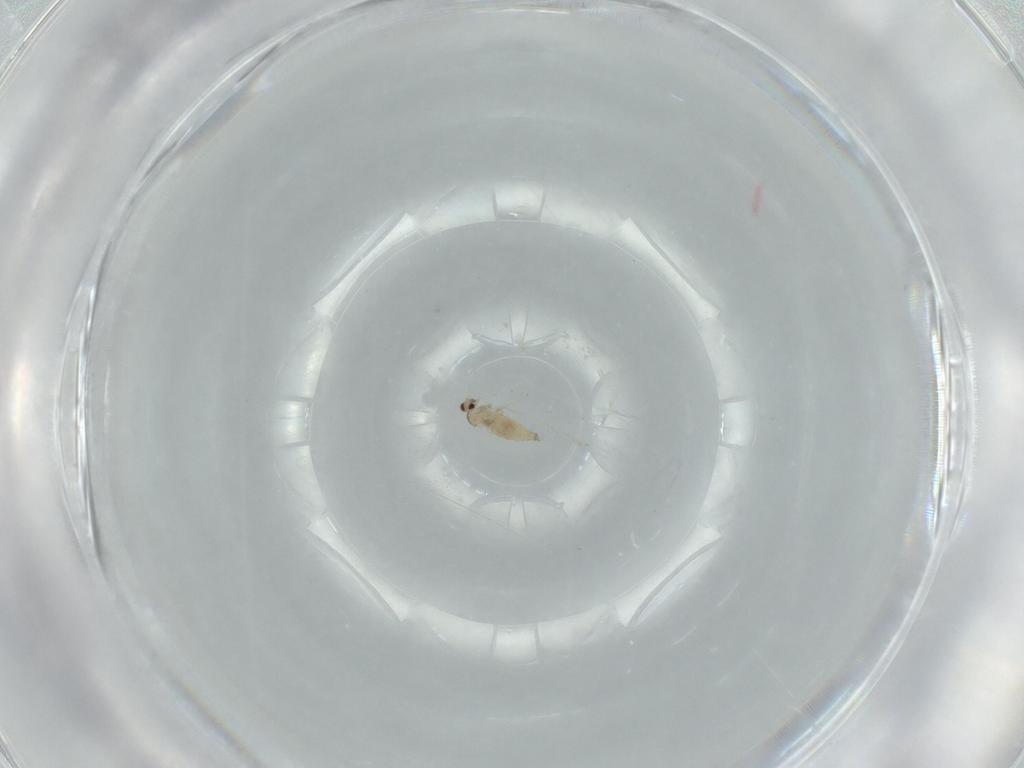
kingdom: Animalia
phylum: Arthropoda
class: Insecta
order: Diptera
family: Cecidomyiidae
